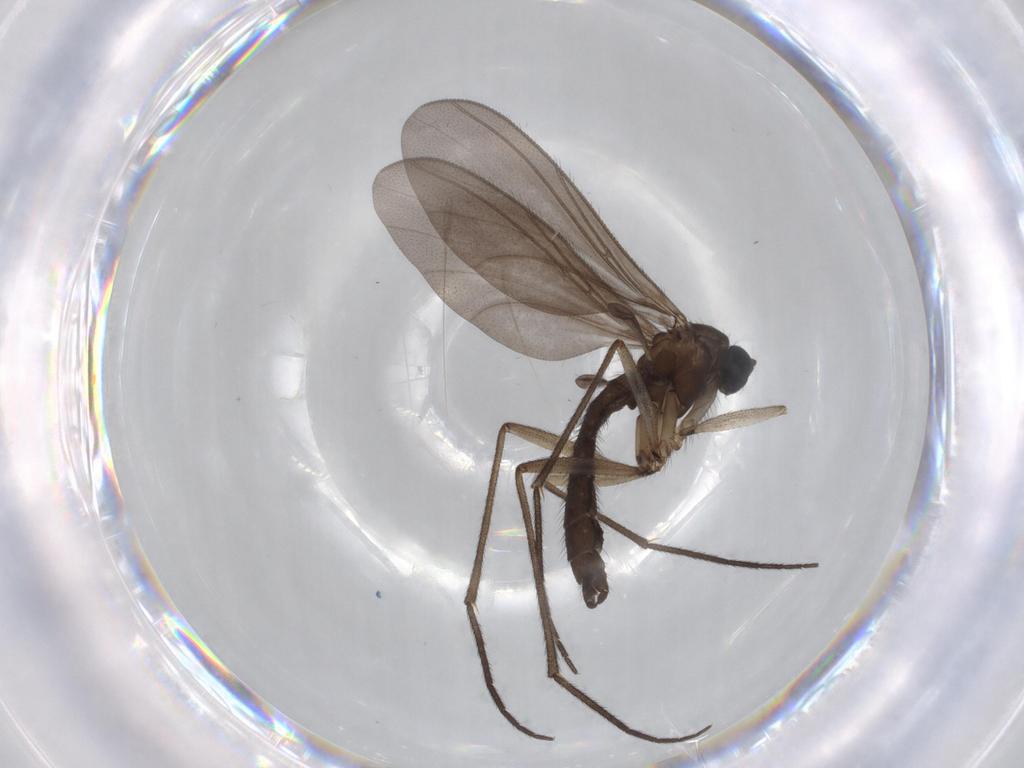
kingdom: Animalia
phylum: Arthropoda
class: Insecta
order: Diptera
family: Sciaridae
